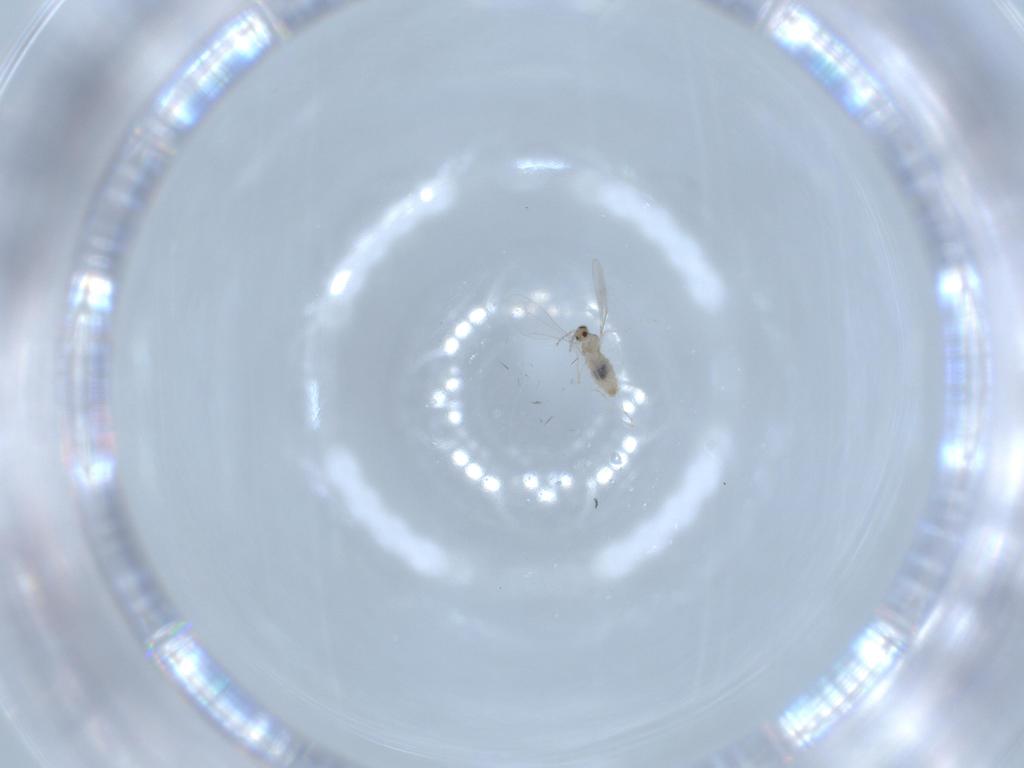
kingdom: Animalia
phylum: Arthropoda
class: Insecta
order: Diptera
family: Cecidomyiidae
